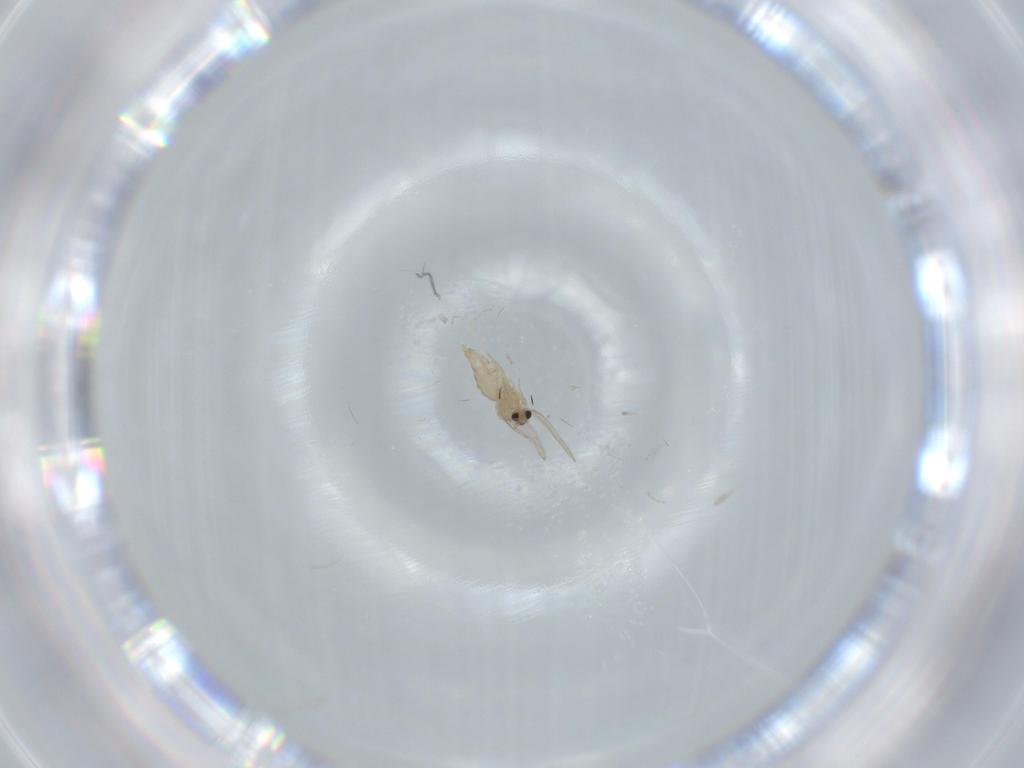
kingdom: Animalia
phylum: Arthropoda
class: Insecta
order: Diptera
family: Cecidomyiidae
